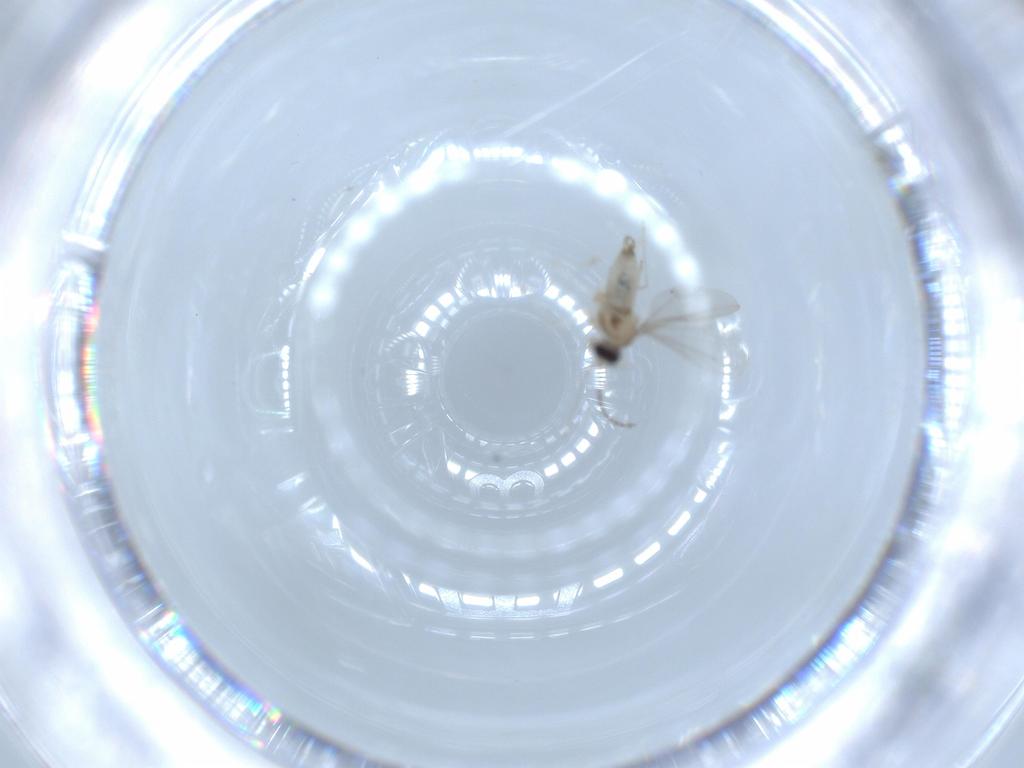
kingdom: Animalia
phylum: Arthropoda
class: Insecta
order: Diptera
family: Cecidomyiidae
